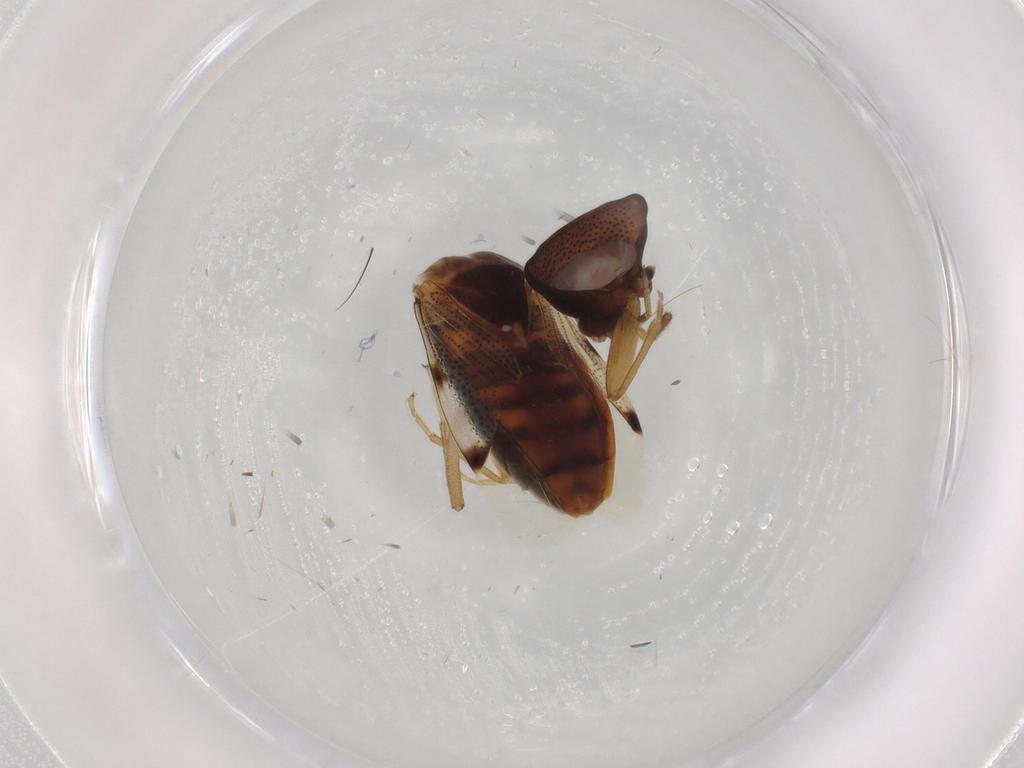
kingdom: Animalia
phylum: Arthropoda
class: Insecta
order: Hemiptera
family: Rhyparochromidae
